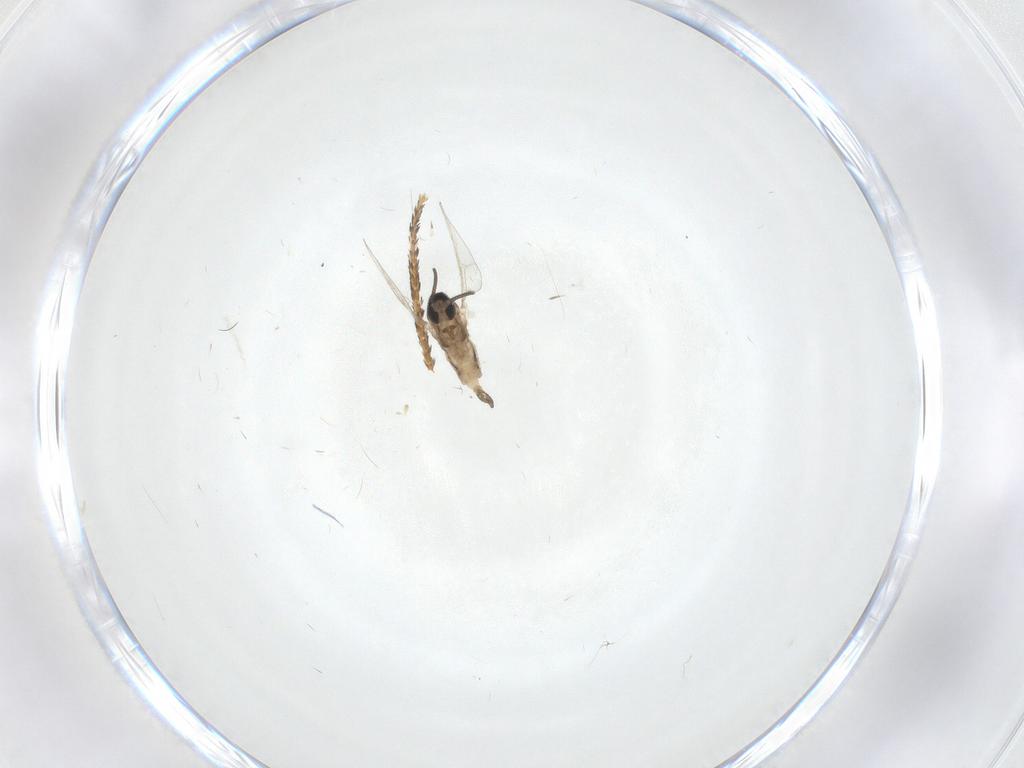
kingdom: Animalia
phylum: Arthropoda
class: Insecta
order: Diptera
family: Cecidomyiidae
